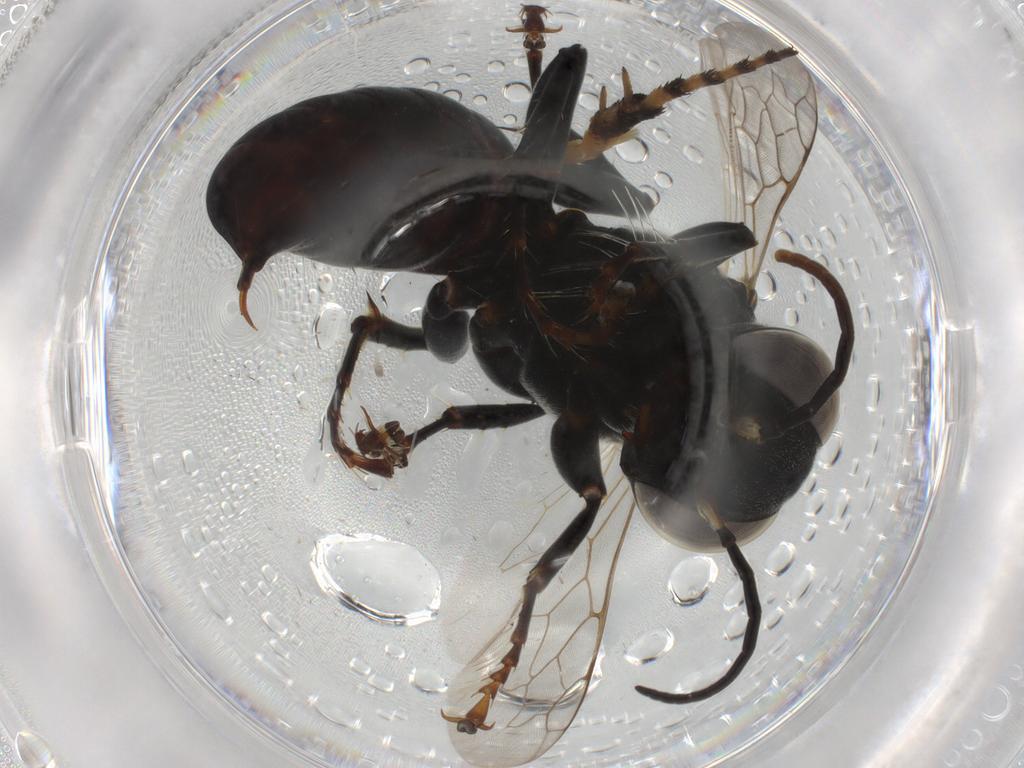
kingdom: Animalia
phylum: Arthropoda
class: Insecta
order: Hymenoptera
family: Vespidae
